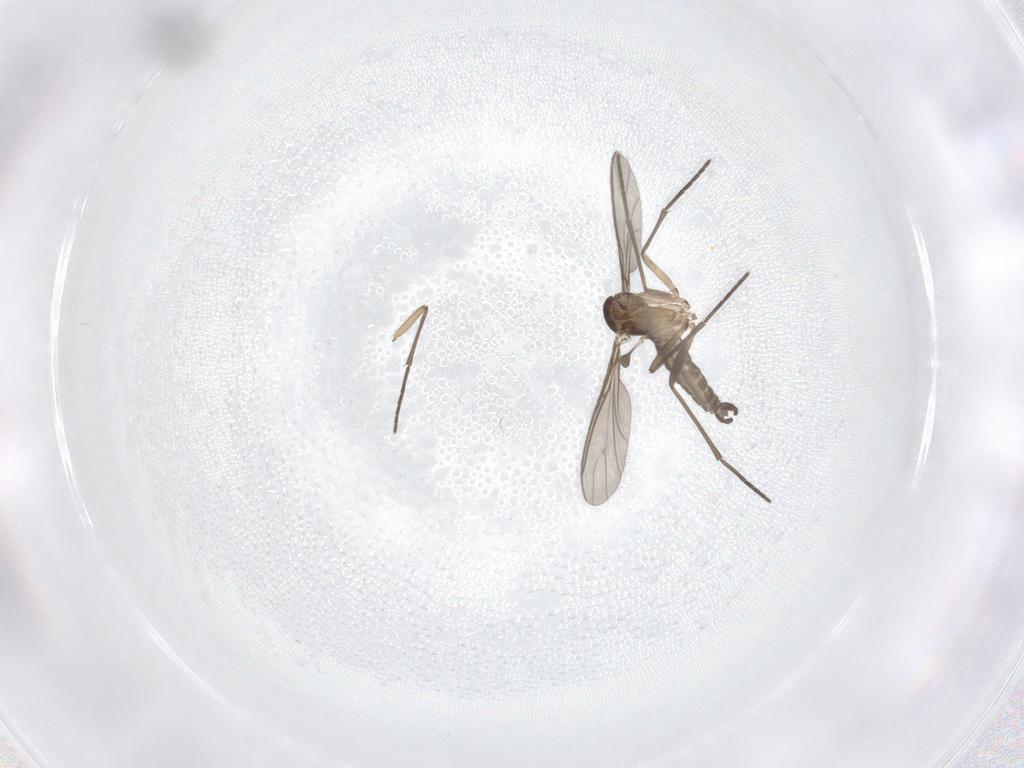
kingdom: Animalia
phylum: Arthropoda
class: Insecta
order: Diptera
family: Sciaridae
